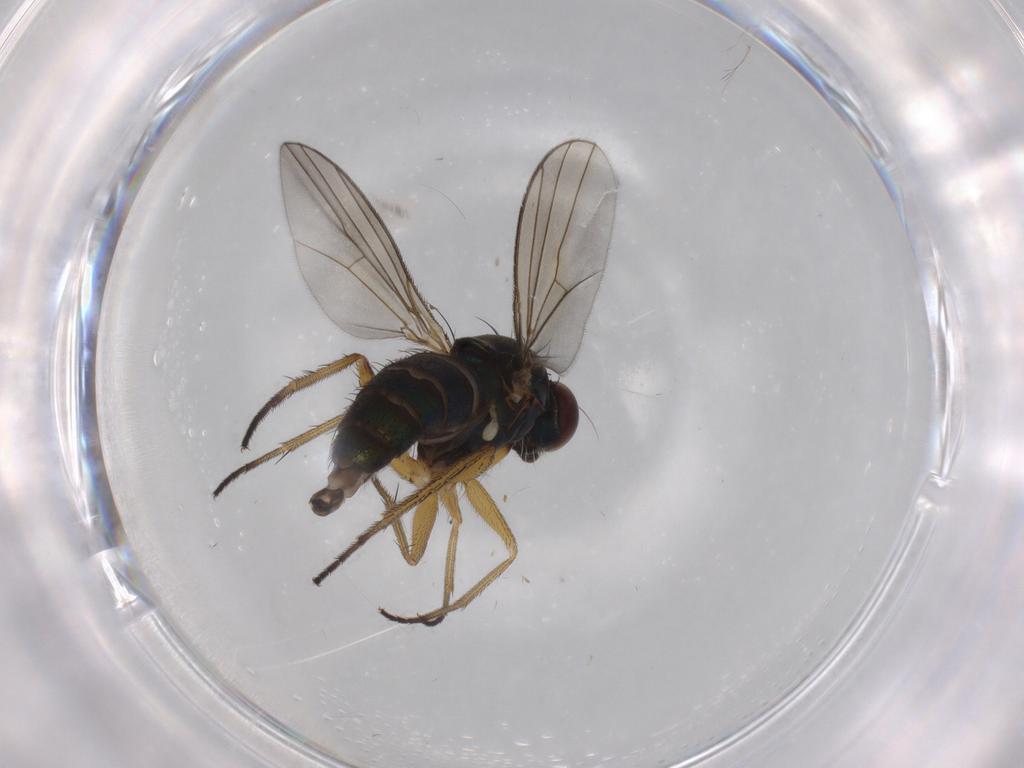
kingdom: Animalia
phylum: Arthropoda
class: Insecta
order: Diptera
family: Dolichopodidae
